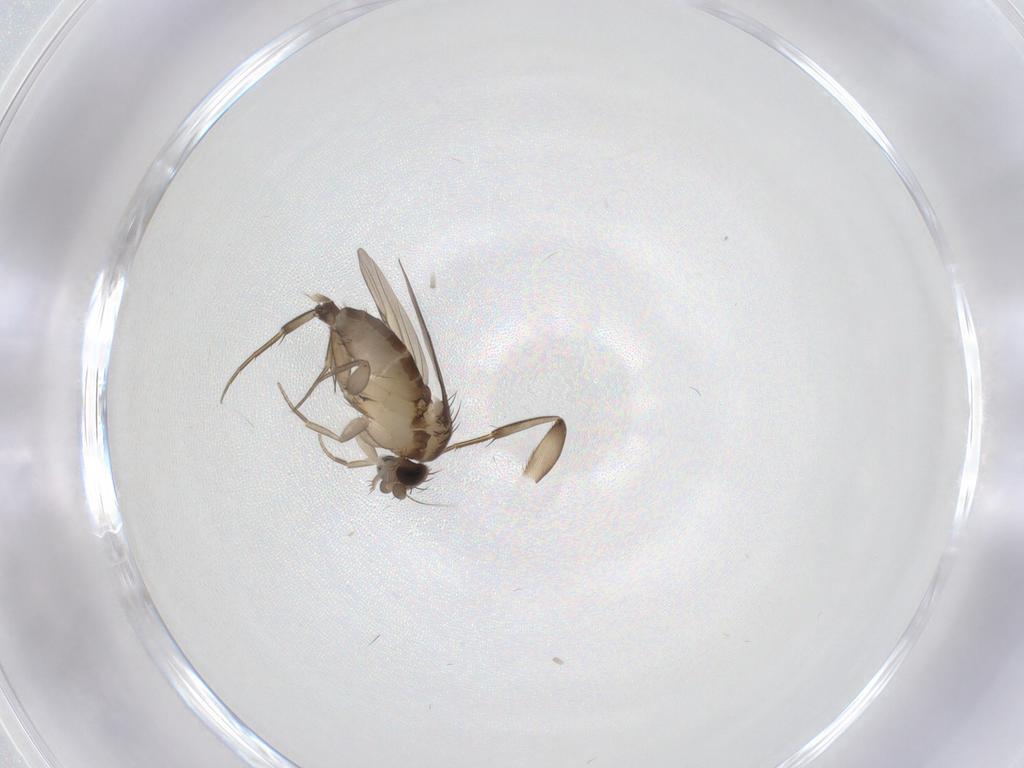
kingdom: Animalia
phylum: Arthropoda
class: Insecta
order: Diptera
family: Phoridae
